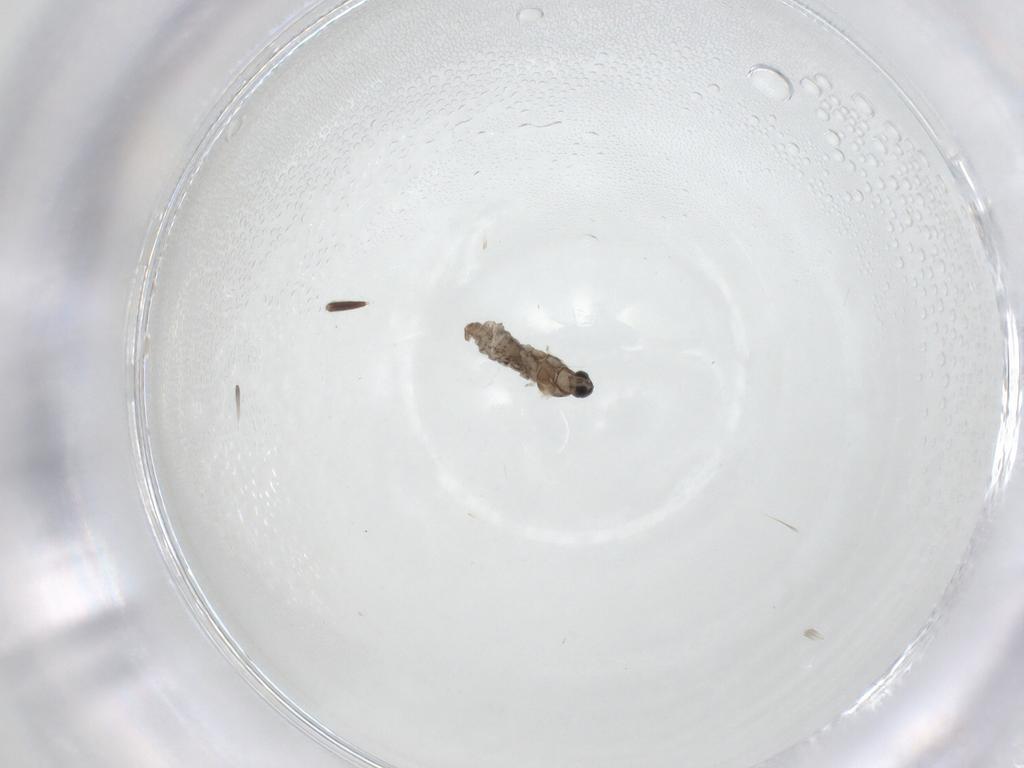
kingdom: Animalia
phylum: Arthropoda
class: Insecta
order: Diptera
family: Cecidomyiidae
